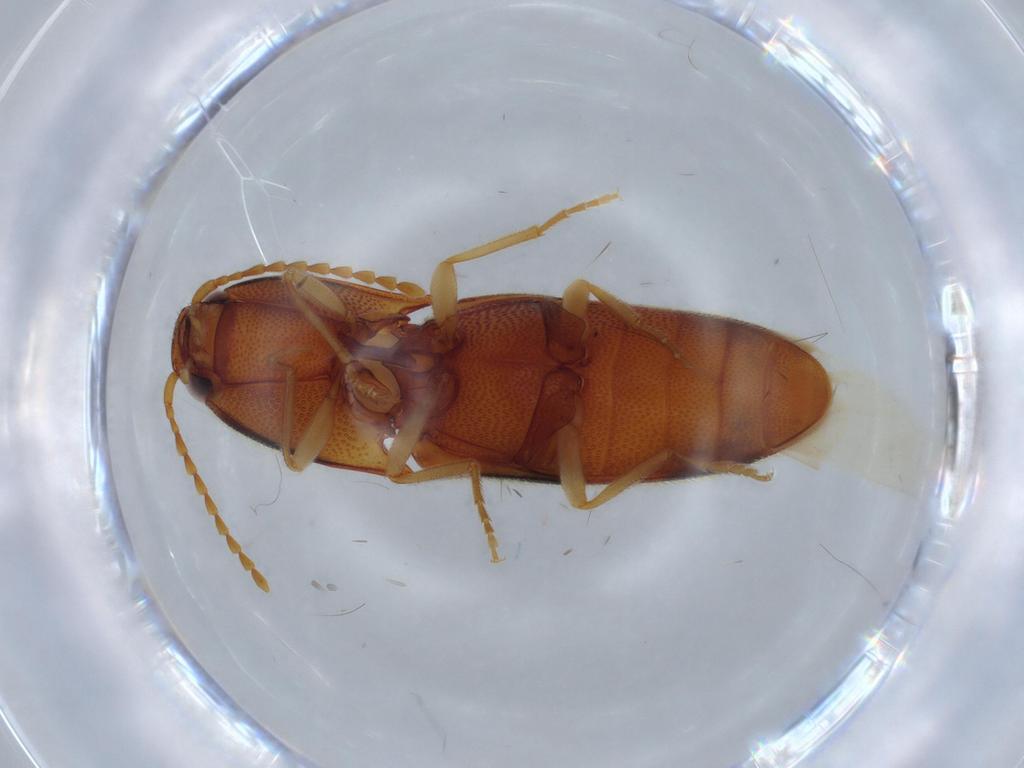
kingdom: Animalia
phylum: Arthropoda
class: Insecta
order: Coleoptera
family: Elateridae
